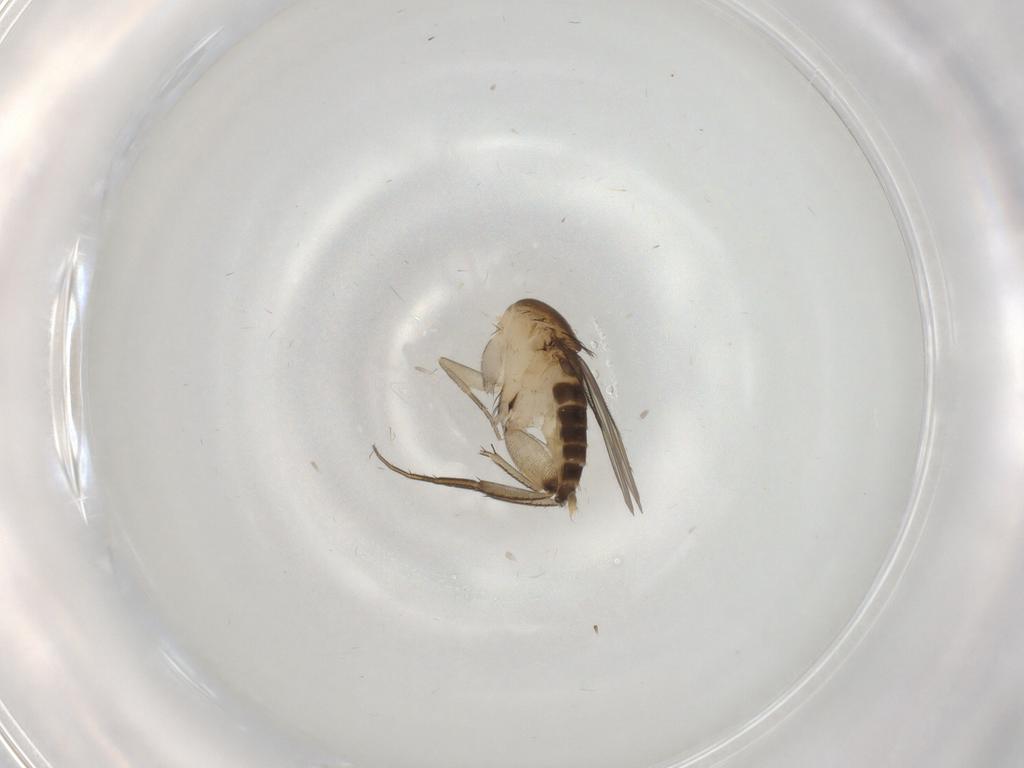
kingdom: Animalia
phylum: Arthropoda
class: Insecta
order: Diptera
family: Phoridae
